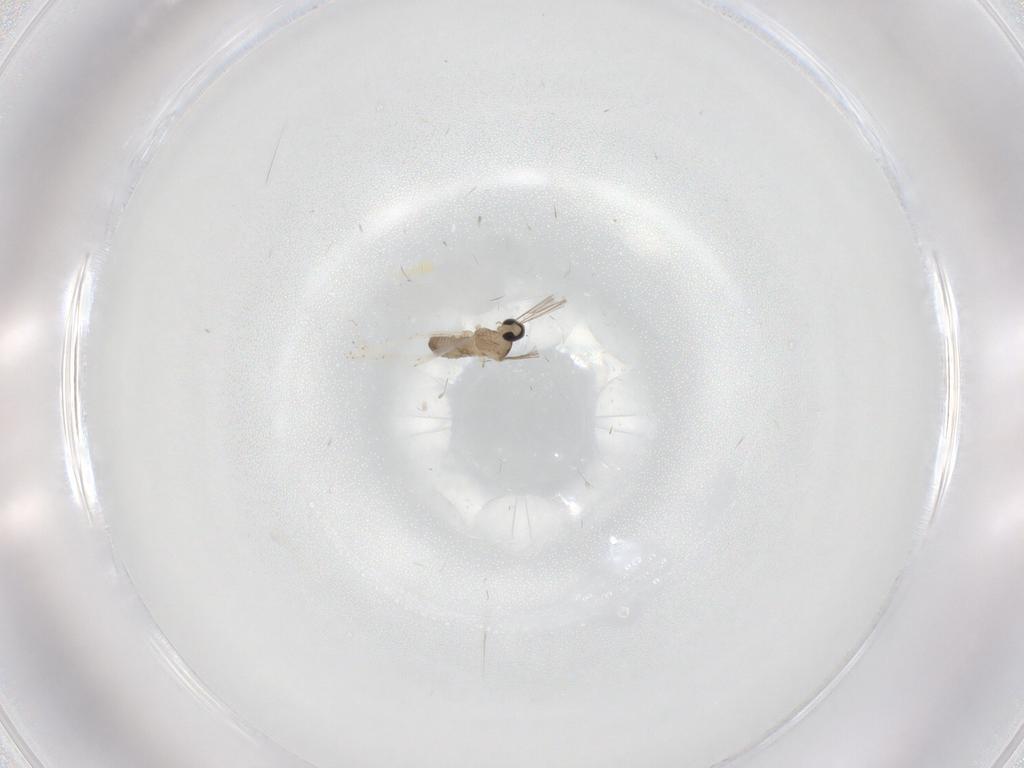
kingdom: Animalia
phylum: Arthropoda
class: Insecta
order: Diptera
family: Cecidomyiidae
